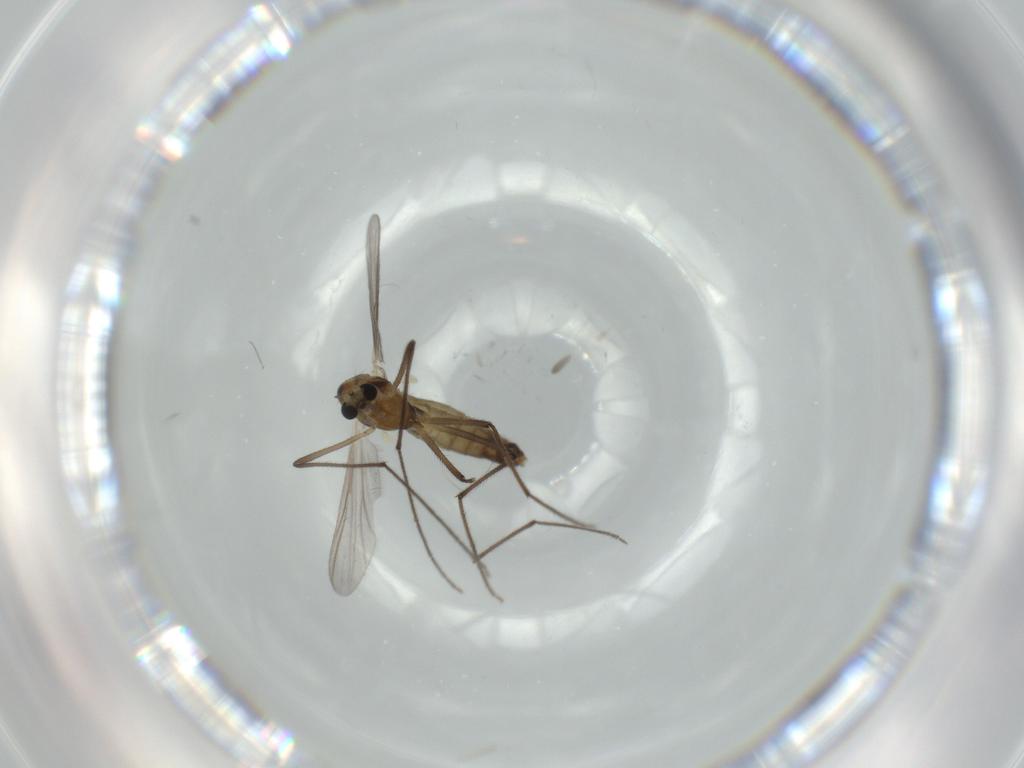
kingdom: Animalia
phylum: Arthropoda
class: Insecta
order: Diptera
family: Chironomidae
